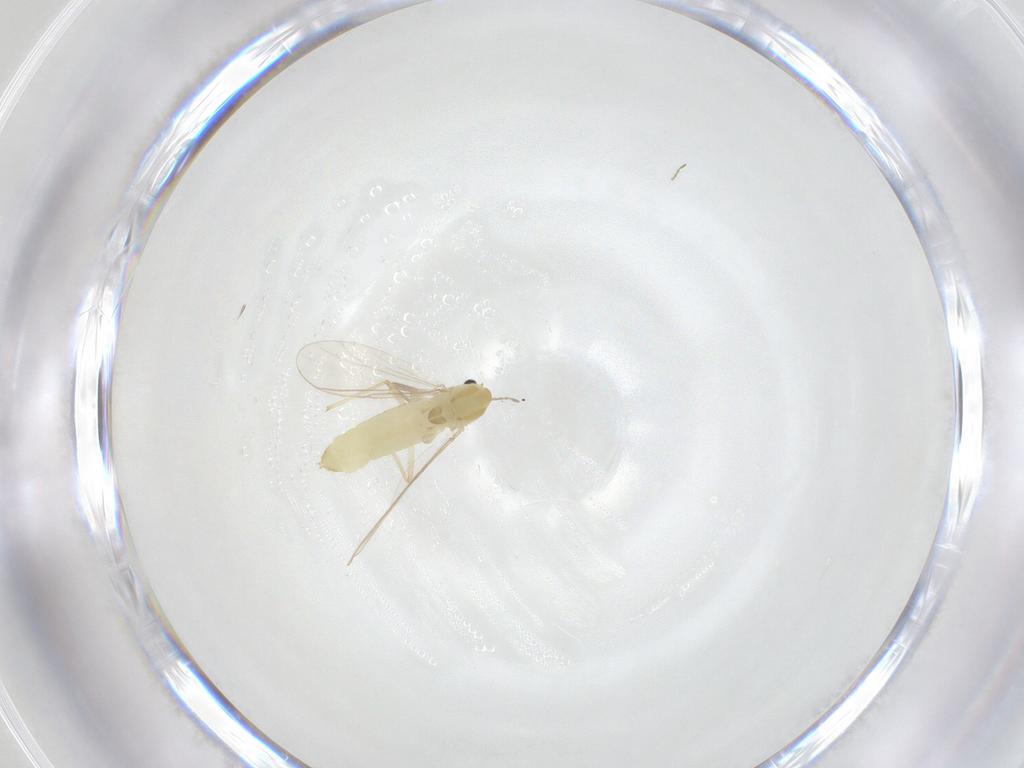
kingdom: Animalia
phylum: Arthropoda
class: Insecta
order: Diptera
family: Chironomidae
